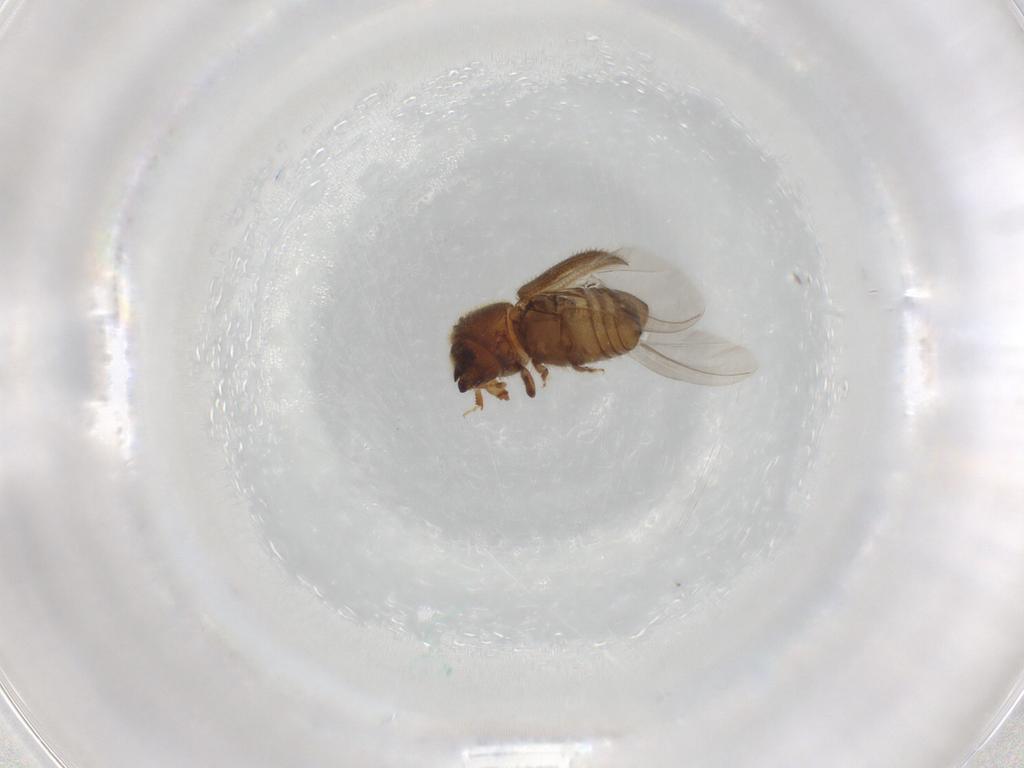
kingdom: Animalia
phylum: Arthropoda
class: Insecta
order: Coleoptera
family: Curculionidae
